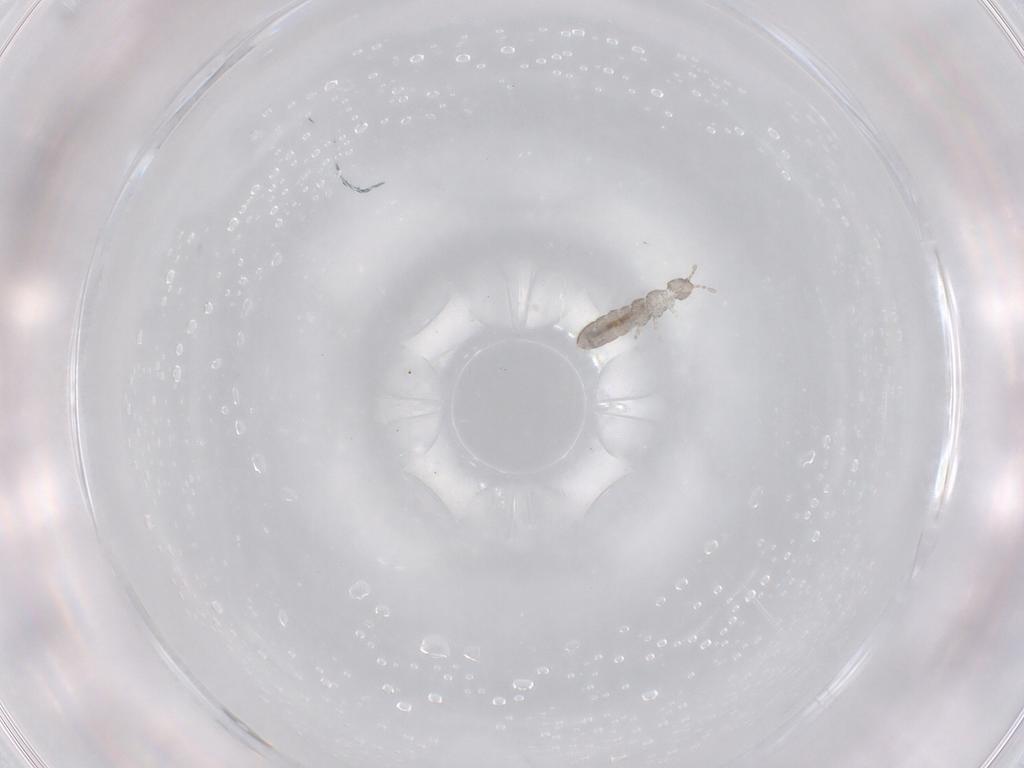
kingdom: Animalia
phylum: Arthropoda
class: Collembola
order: Entomobryomorpha
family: Isotomidae
